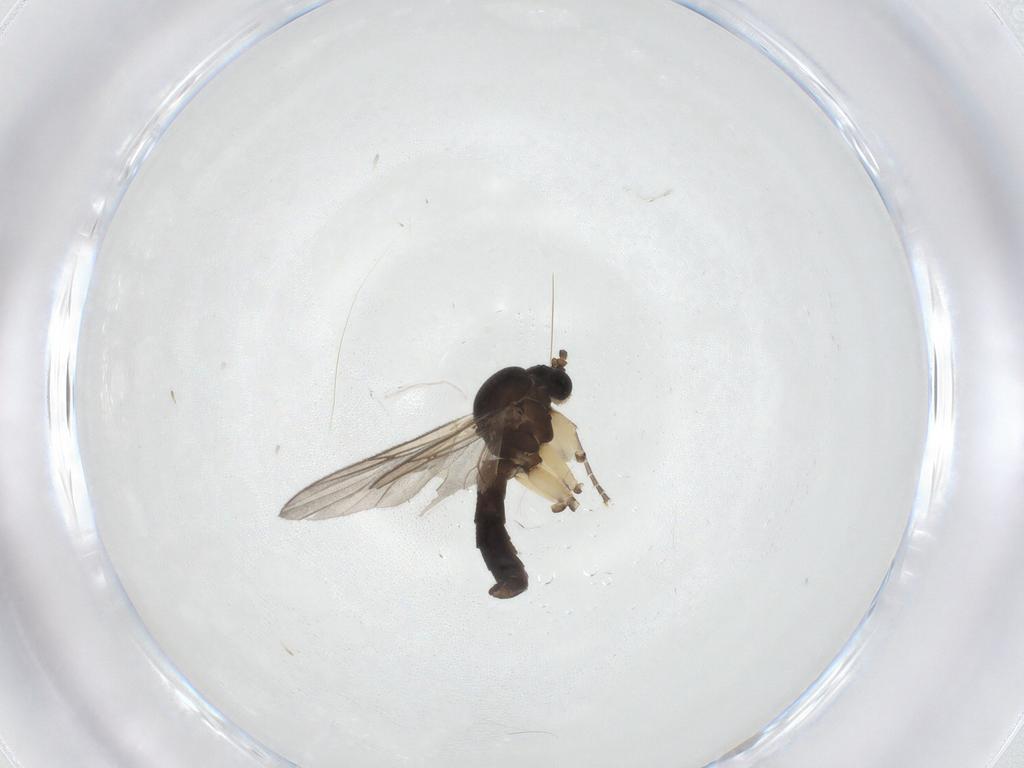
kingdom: Animalia
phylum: Arthropoda
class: Insecta
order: Diptera
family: Mycetophilidae
